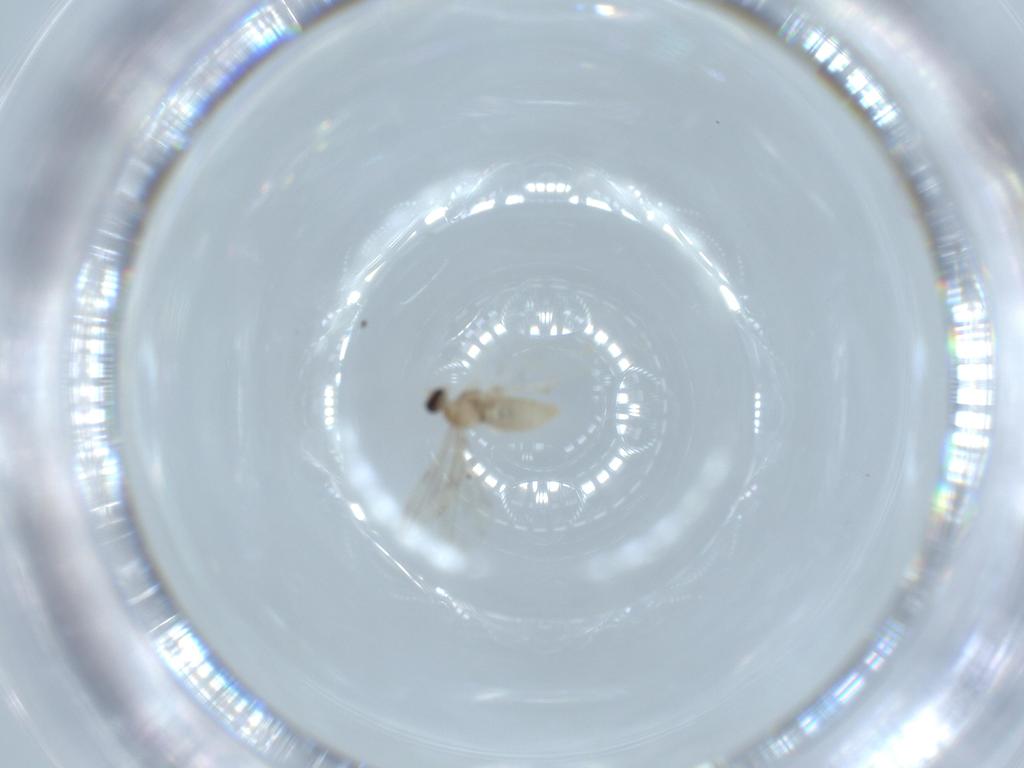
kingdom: Animalia
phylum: Arthropoda
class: Insecta
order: Diptera
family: Cecidomyiidae
